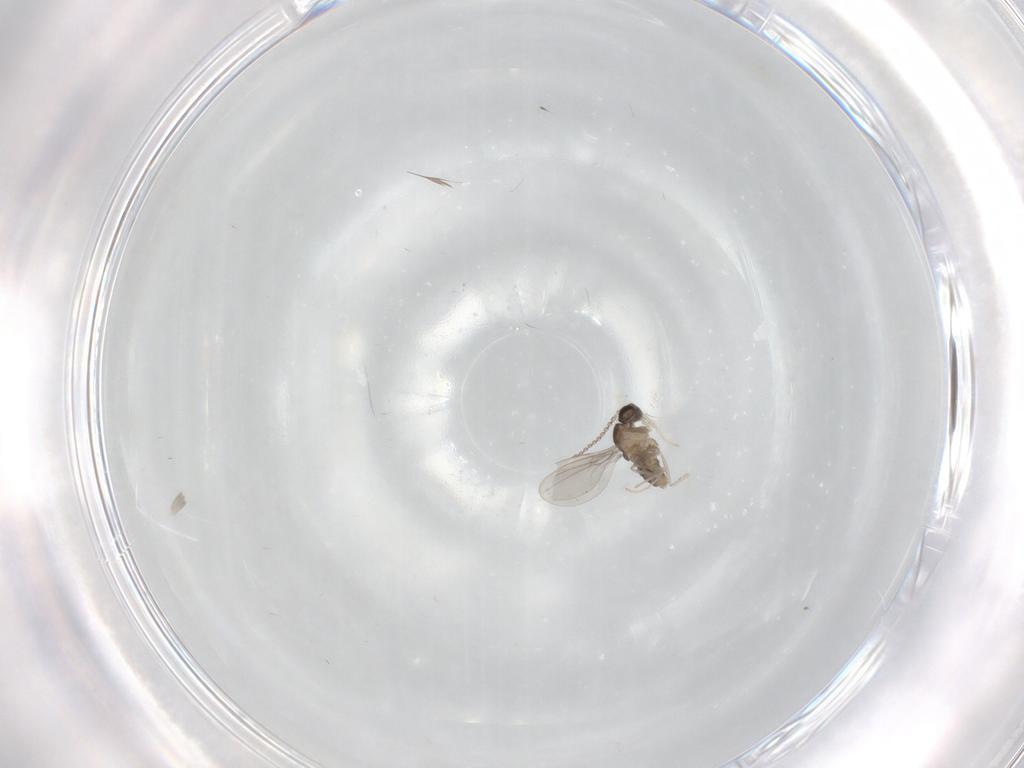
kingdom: Animalia
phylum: Arthropoda
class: Insecta
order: Diptera
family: Cecidomyiidae
